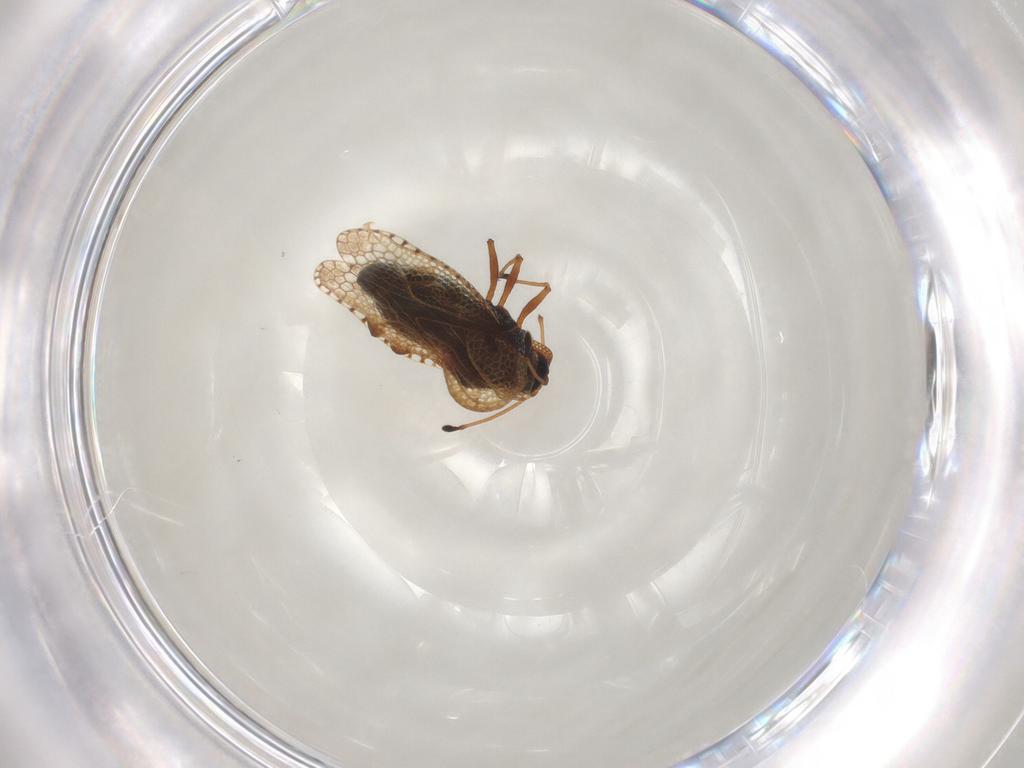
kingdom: Animalia
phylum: Arthropoda
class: Insecta
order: Hemiptera
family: Tingidae
